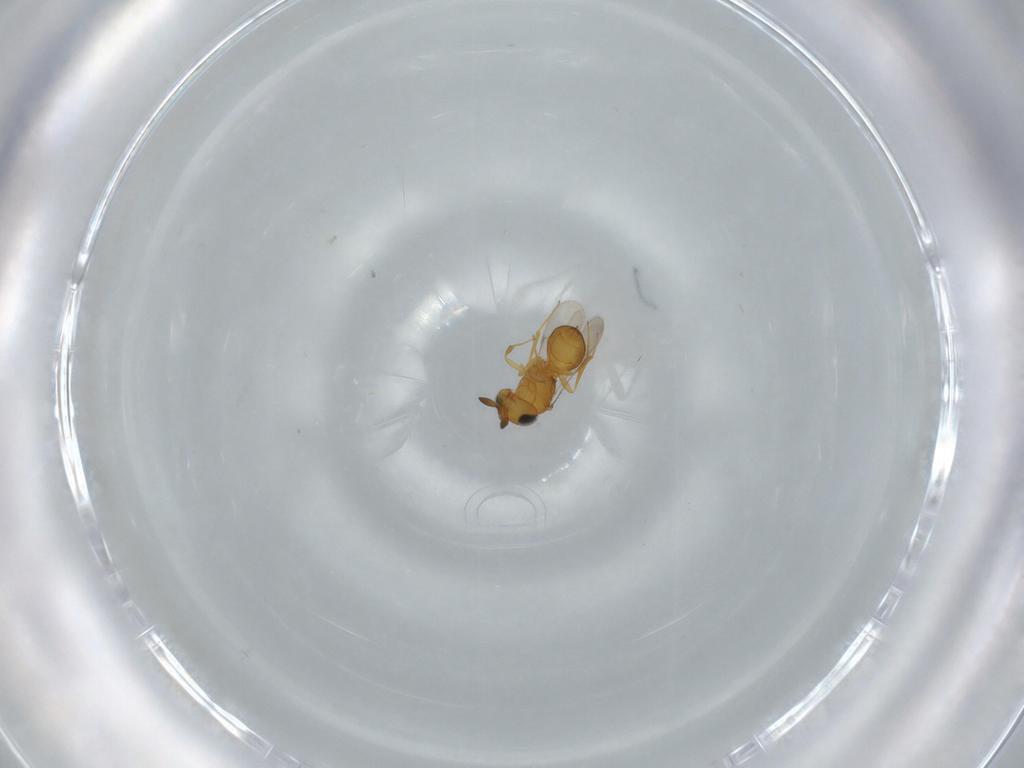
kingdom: Animalia
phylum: Arthropoda
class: Insecta
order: Hymenoptera
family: Scelionidae
